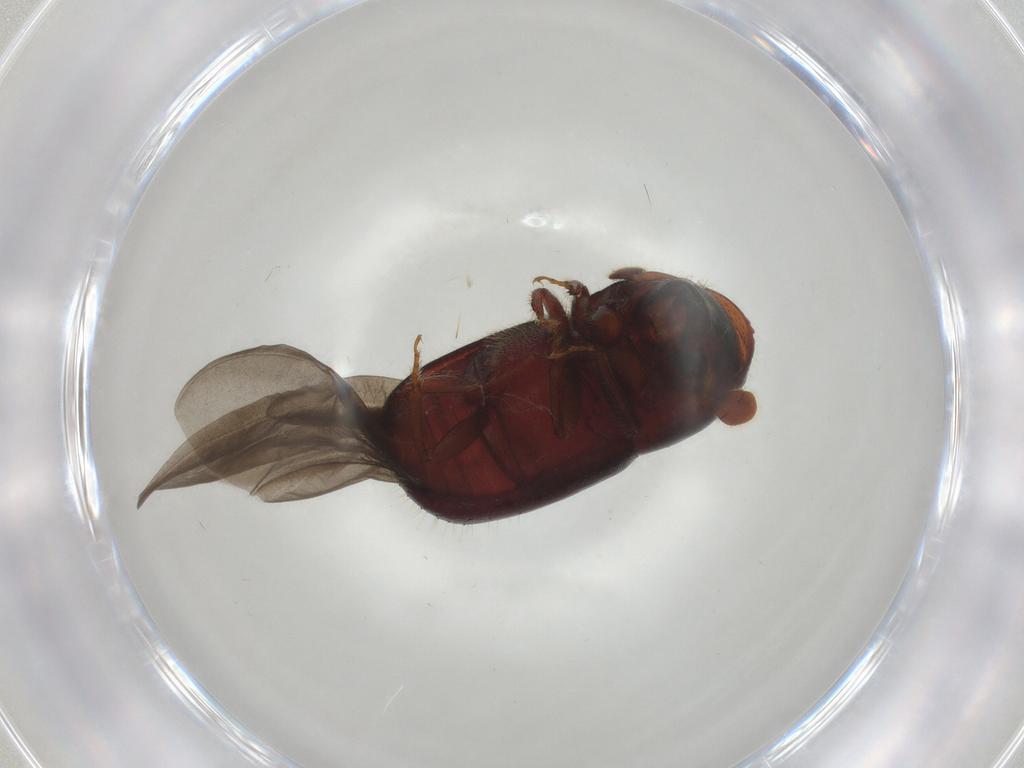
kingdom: Animalia
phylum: Arthropoda
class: Insecta
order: Coleoptera
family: Curculionidae
